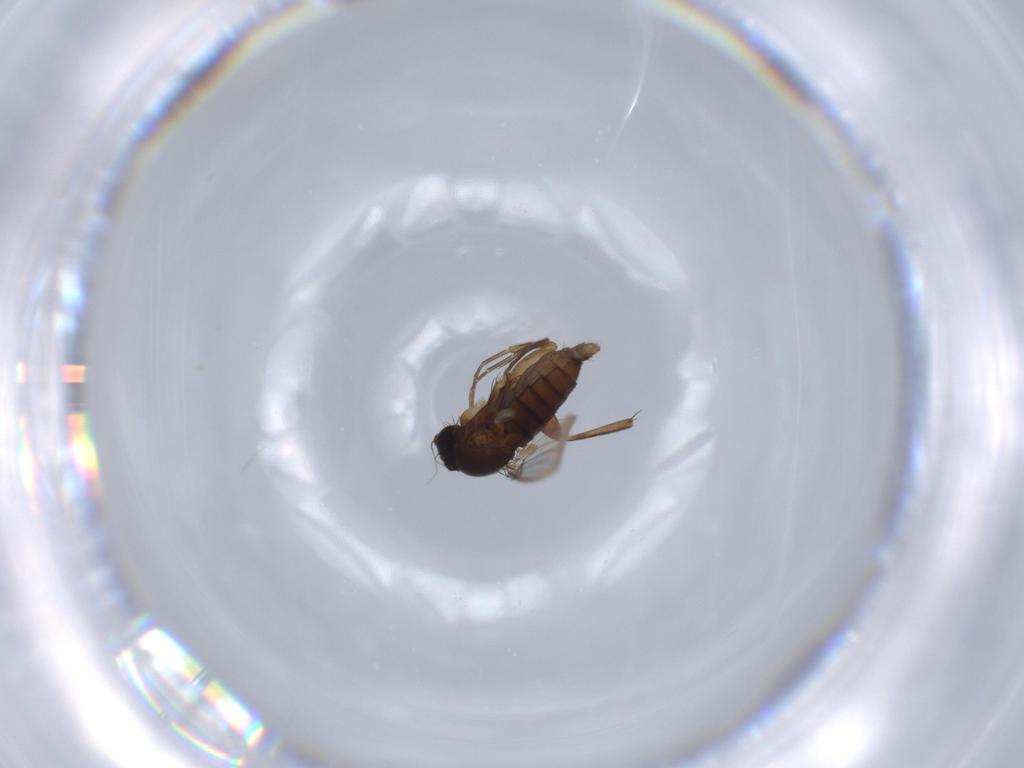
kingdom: Animalia
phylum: Arthropoda
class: Insecta
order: Diptera
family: Phoridae
